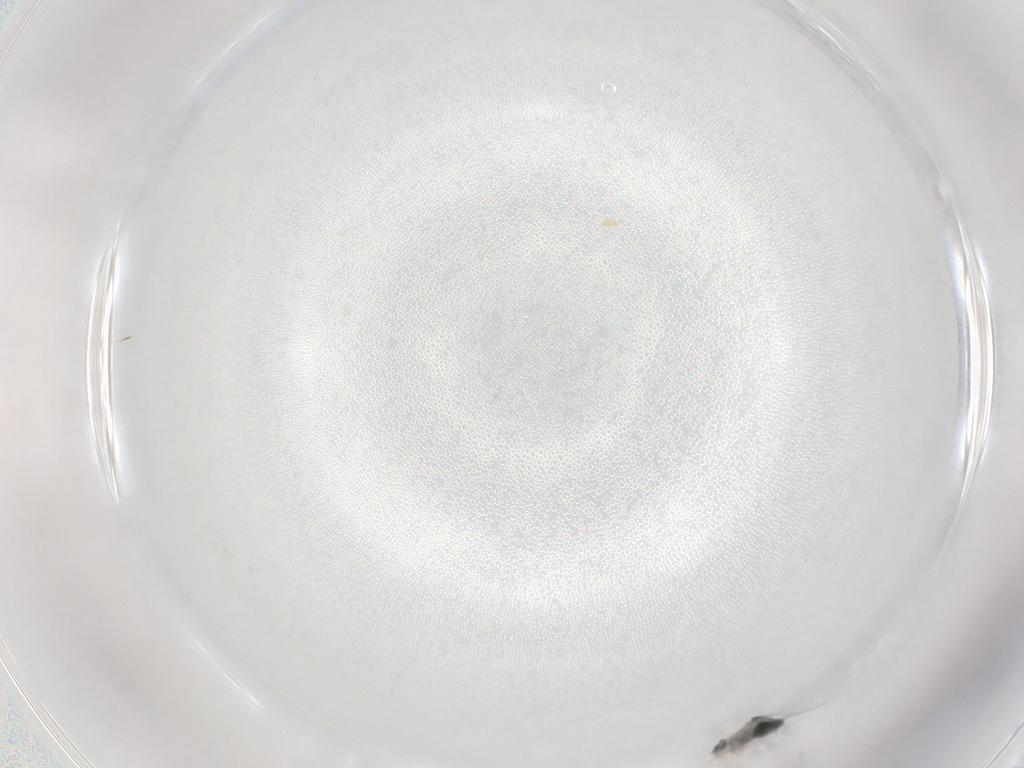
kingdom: Animalia
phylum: Arthropoda
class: Insecta
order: Diptera
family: Cecidomyiidae
